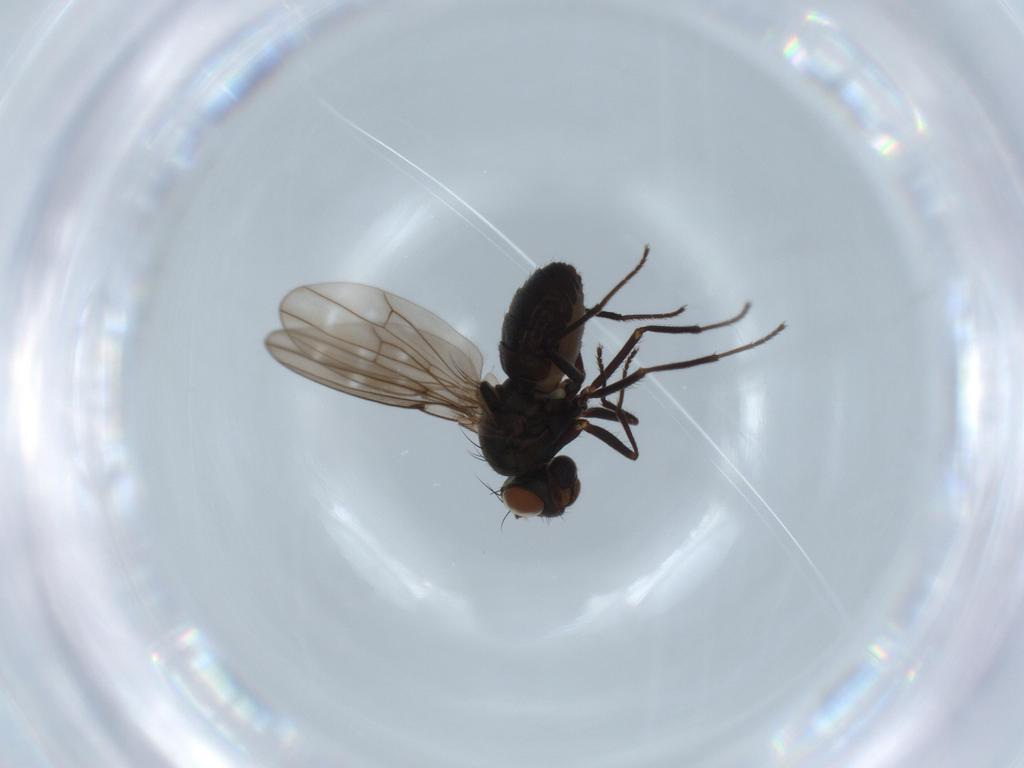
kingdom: Animalia
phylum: Arthropoda
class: Insecta
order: Diptera
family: Ephydridae
